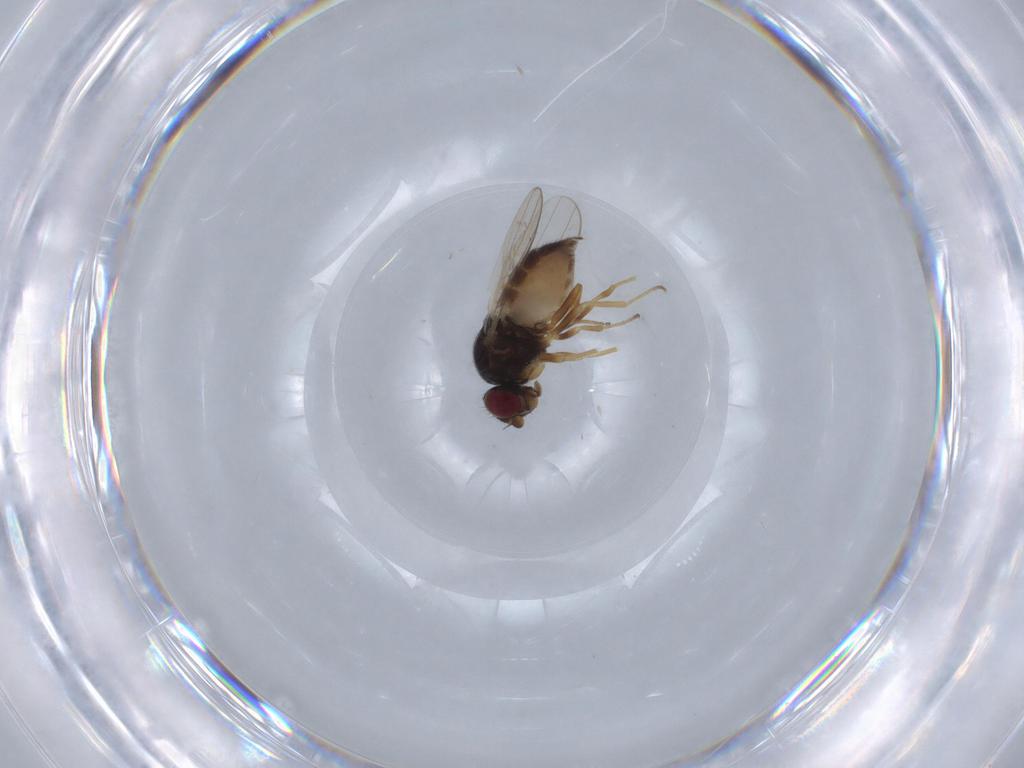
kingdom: Animalia
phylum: Arthropoda
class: Insecta
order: Diptera
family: Chloropidae
